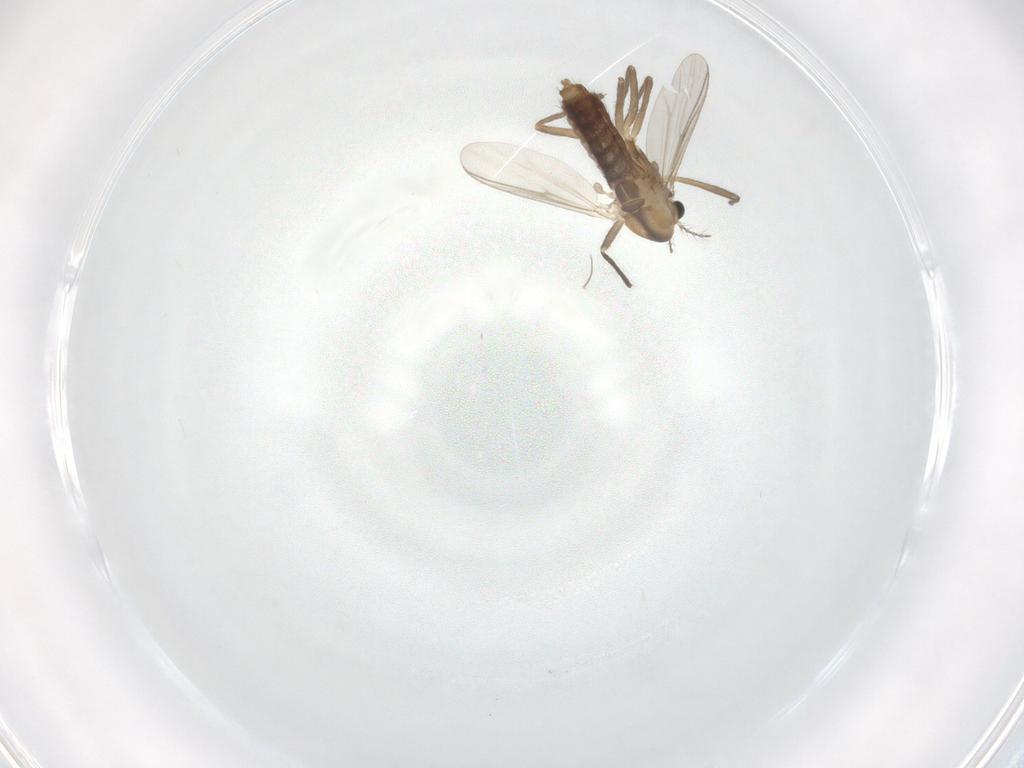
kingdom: Animalia
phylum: Arthropoda
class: Insecta
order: Diptera
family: Chironomidae
